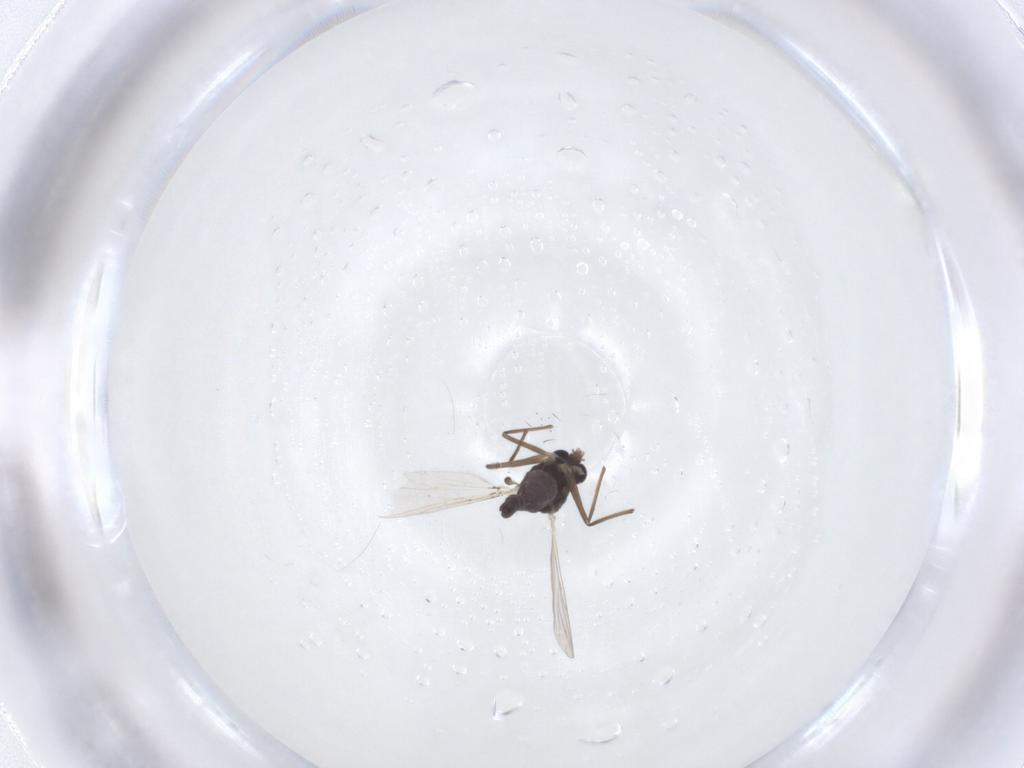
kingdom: Animalia
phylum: Arthropoda
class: Insecta
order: Diptera
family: Chironomidae
